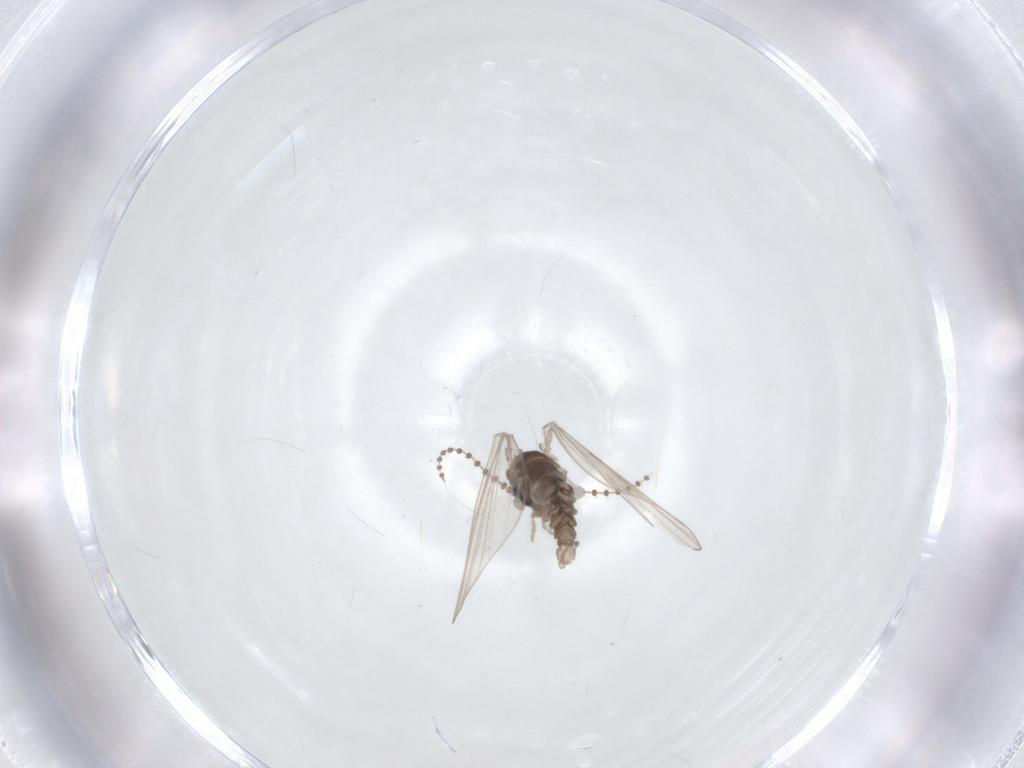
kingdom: Animalia
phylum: Arthropoda
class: Insecta
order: Diptera
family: Psychodidae
